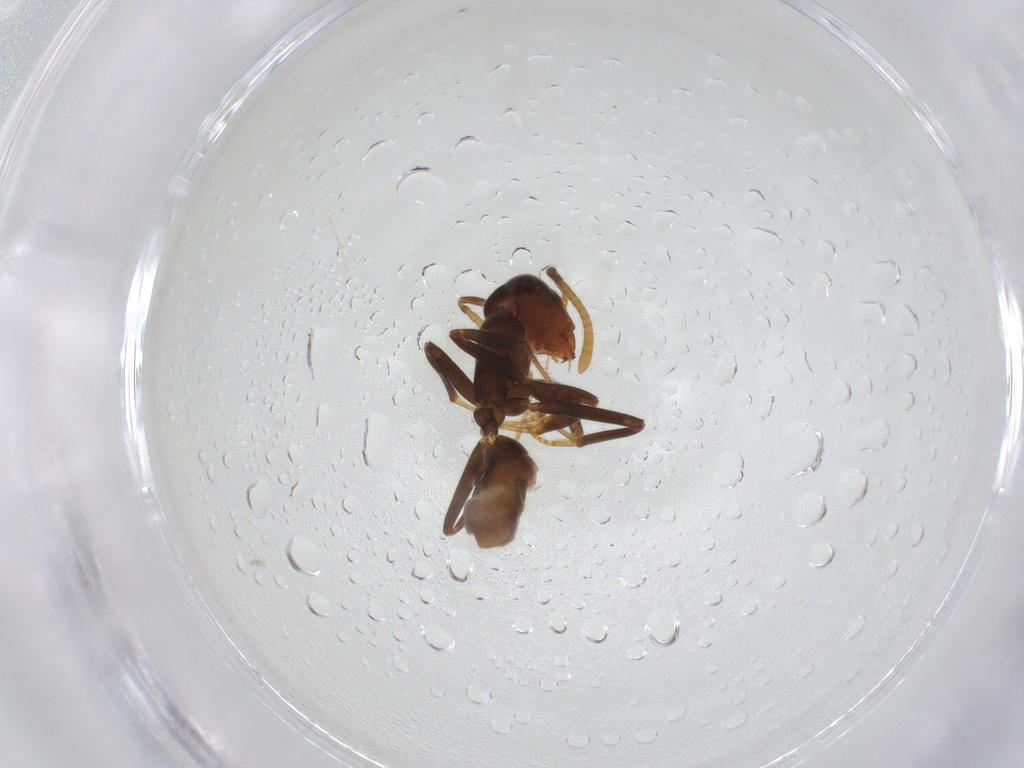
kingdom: Animalia
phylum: Arthropoda
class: Insecta
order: Hymenoptera
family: Formicidae
